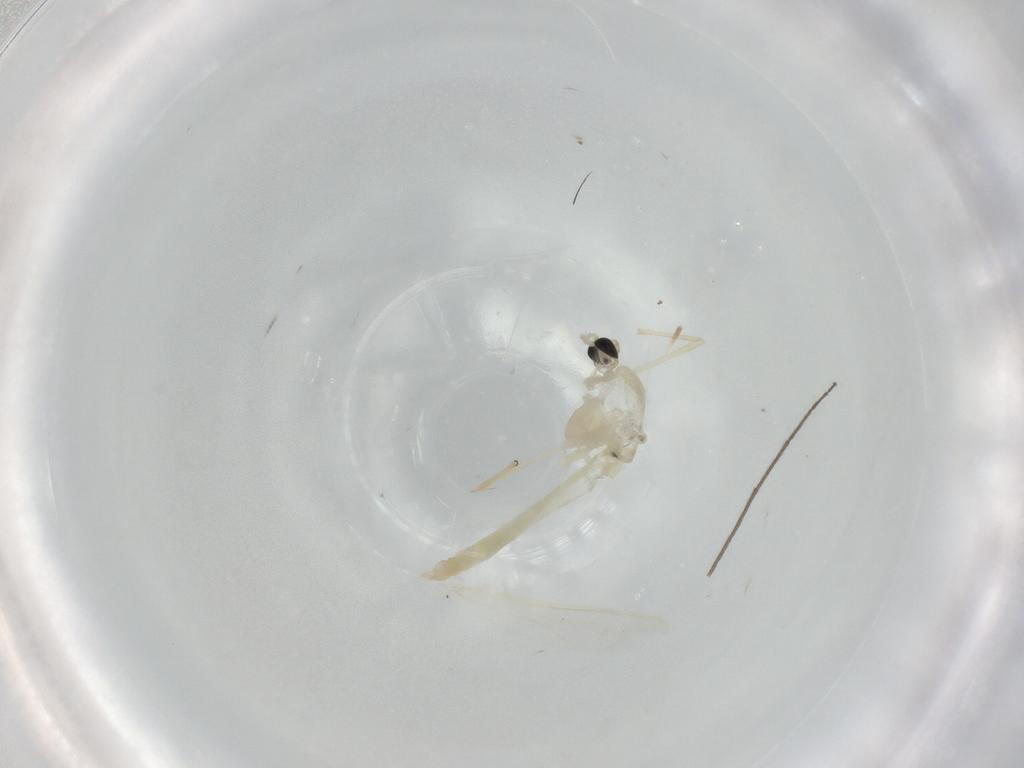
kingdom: Animalia
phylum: Arthropoda
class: Insecta
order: Diptera
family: Chironomidae
